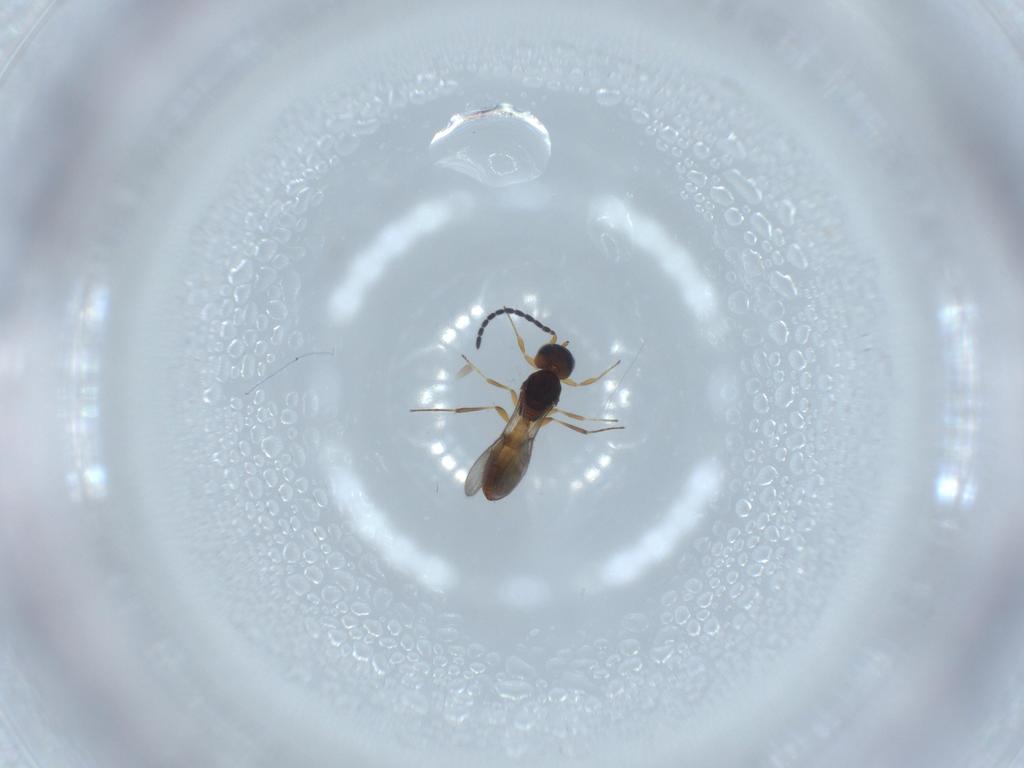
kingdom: Animalia
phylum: Arthropoda
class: Insecta
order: Hymenoptera
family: Scelionidae
